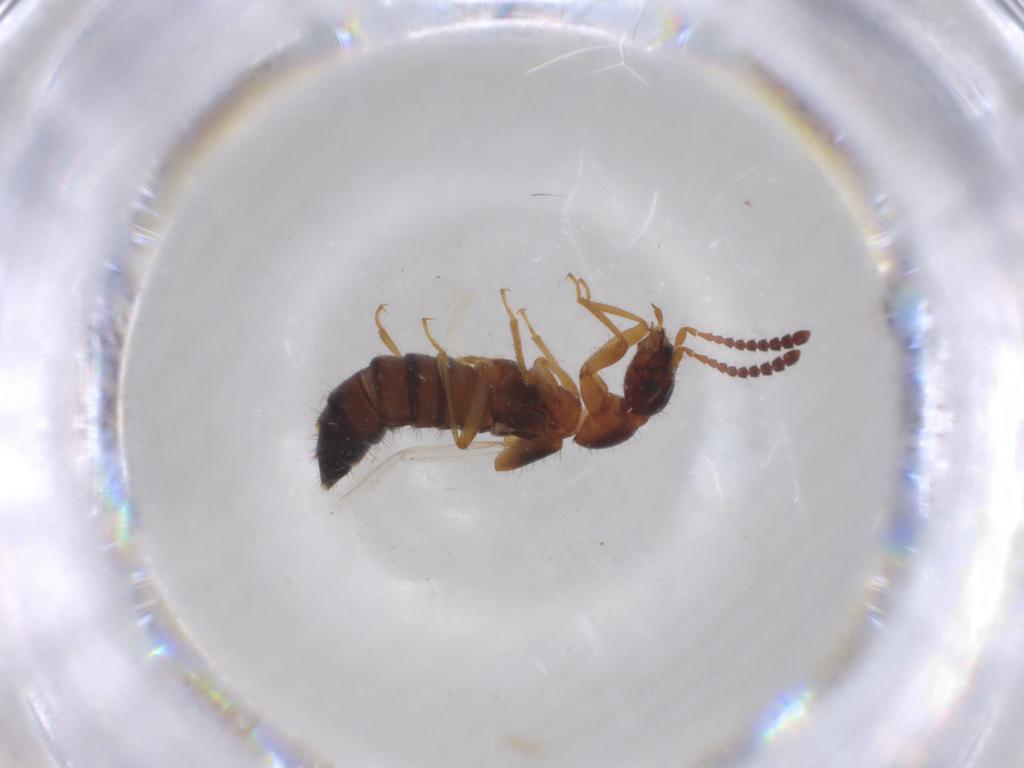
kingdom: Animalia
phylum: Arthropoda
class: Insecta
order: Coleoptera
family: Staphylinidae
